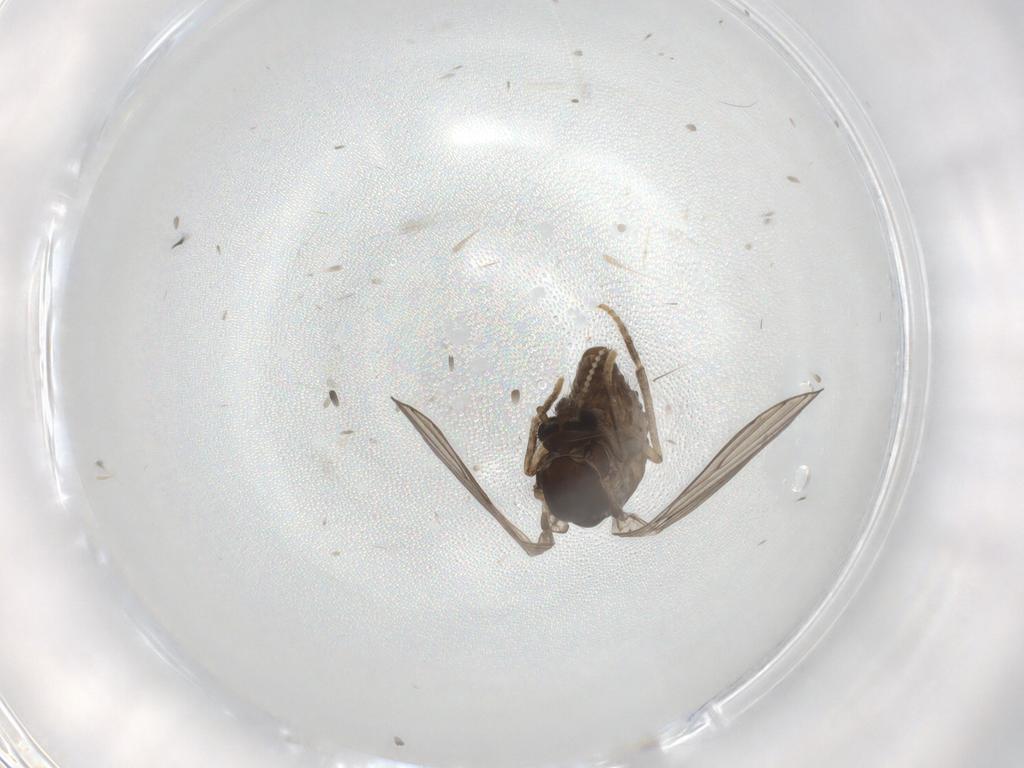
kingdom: Animalia
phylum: Arthropoda
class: Insecta
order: Diptera
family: Psychodidae
